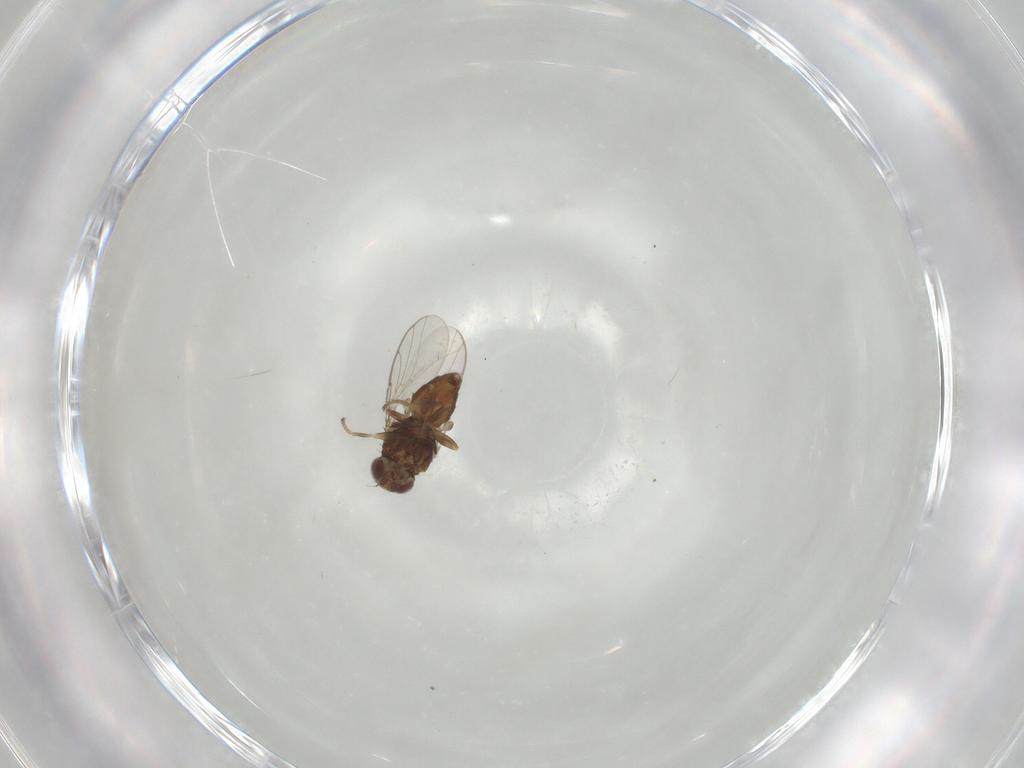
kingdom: Animalia
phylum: Arthropoda
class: Insecta
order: Diptera
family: Chloropidae
